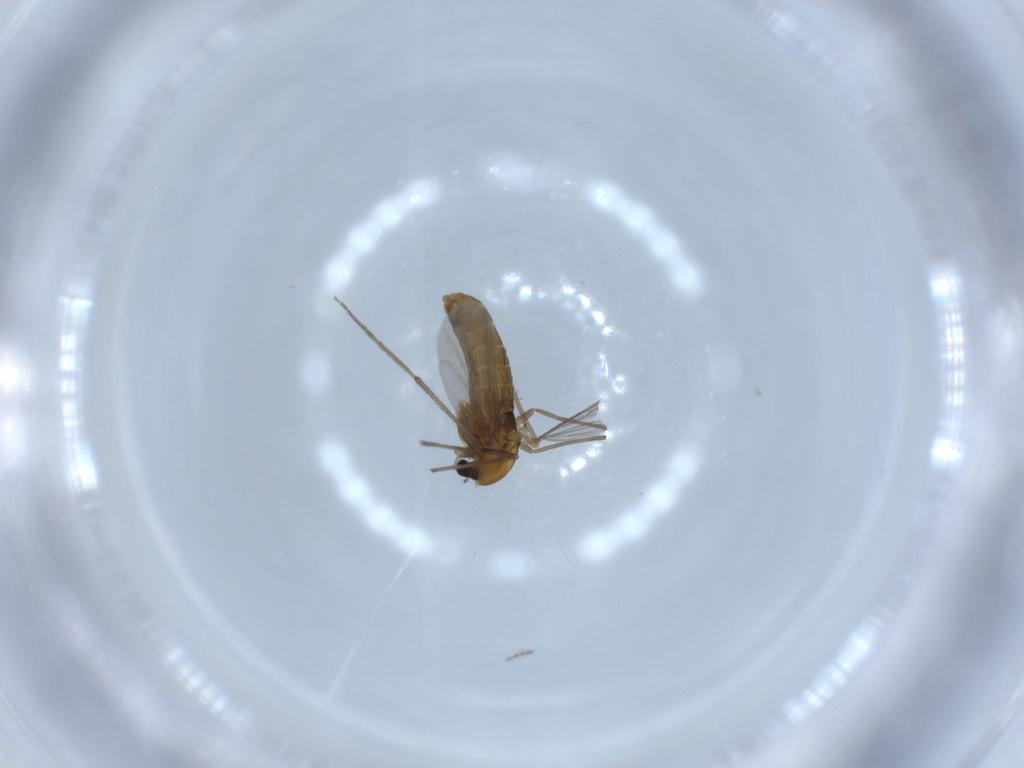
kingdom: Animalia
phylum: Arthropoda
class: Insecta
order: Diptera
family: Chironomidae
